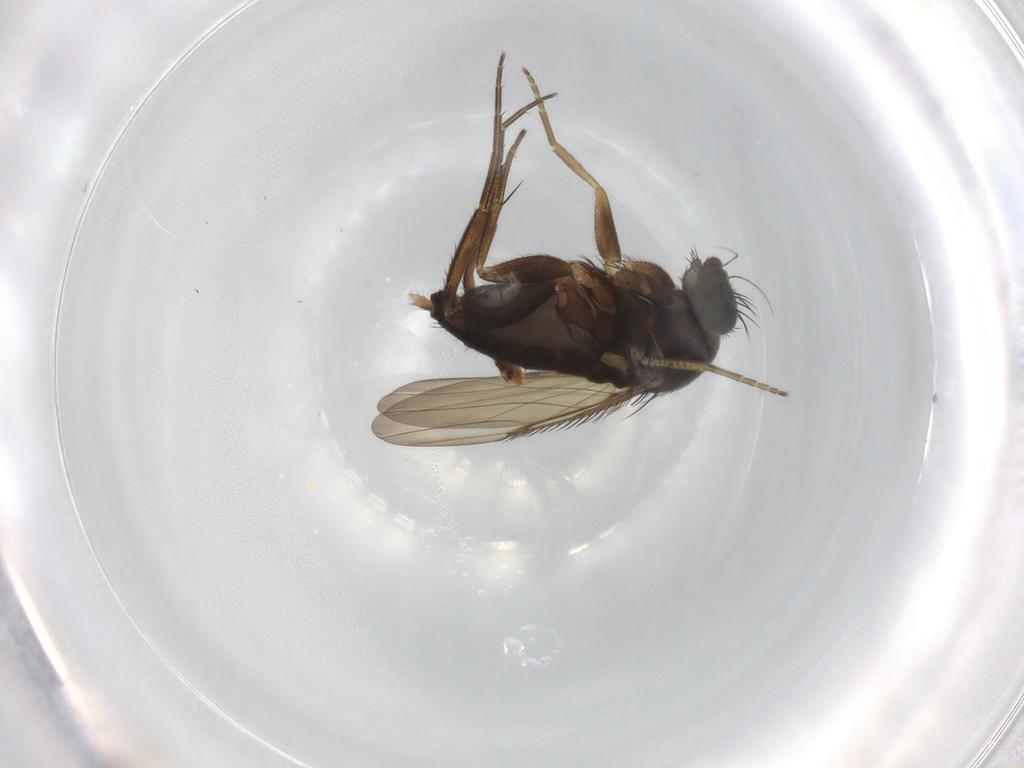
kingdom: Animalia
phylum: Arthropoda
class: Insecta
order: Diptera
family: Phoridae
